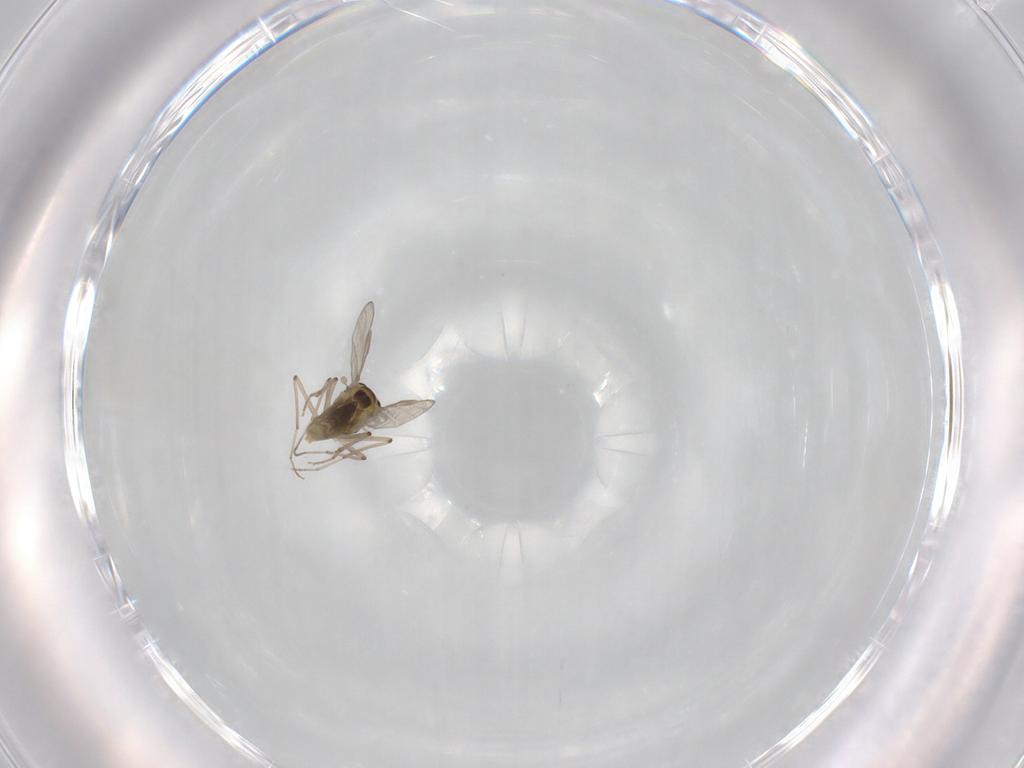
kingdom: Animalia
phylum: Arthropoda
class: Insecta
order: Diptera
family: Chironomidae
